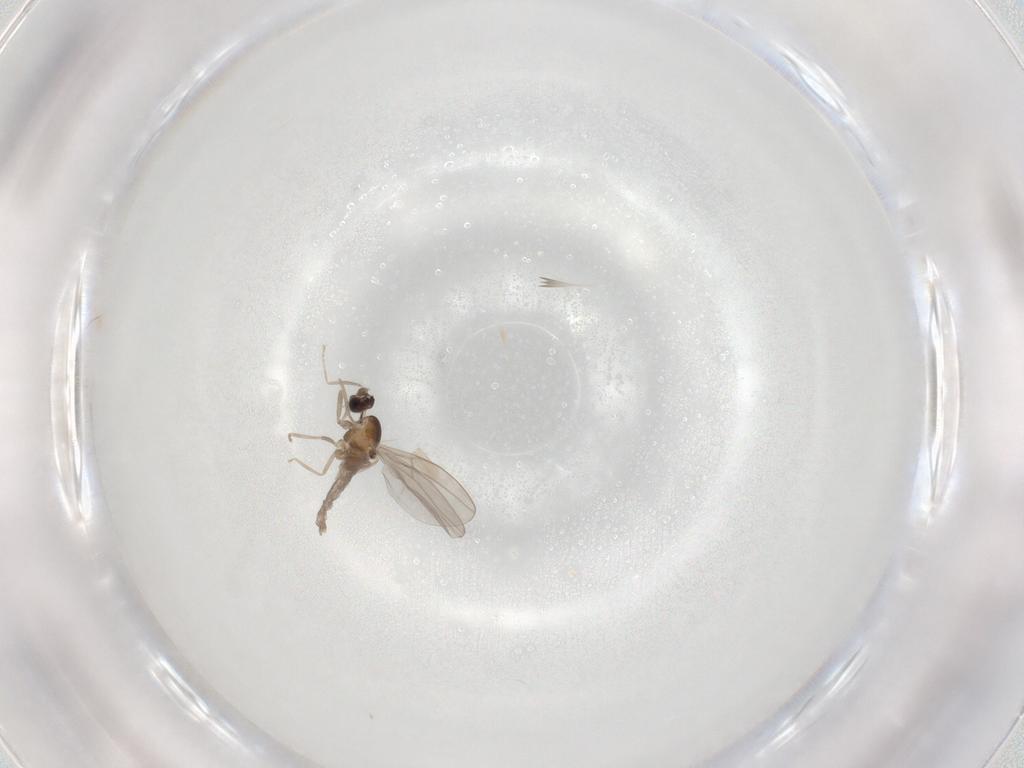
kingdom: Animalia
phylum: Arthropoda
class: Insecta
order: Diptera
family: Cecidomyiidae
